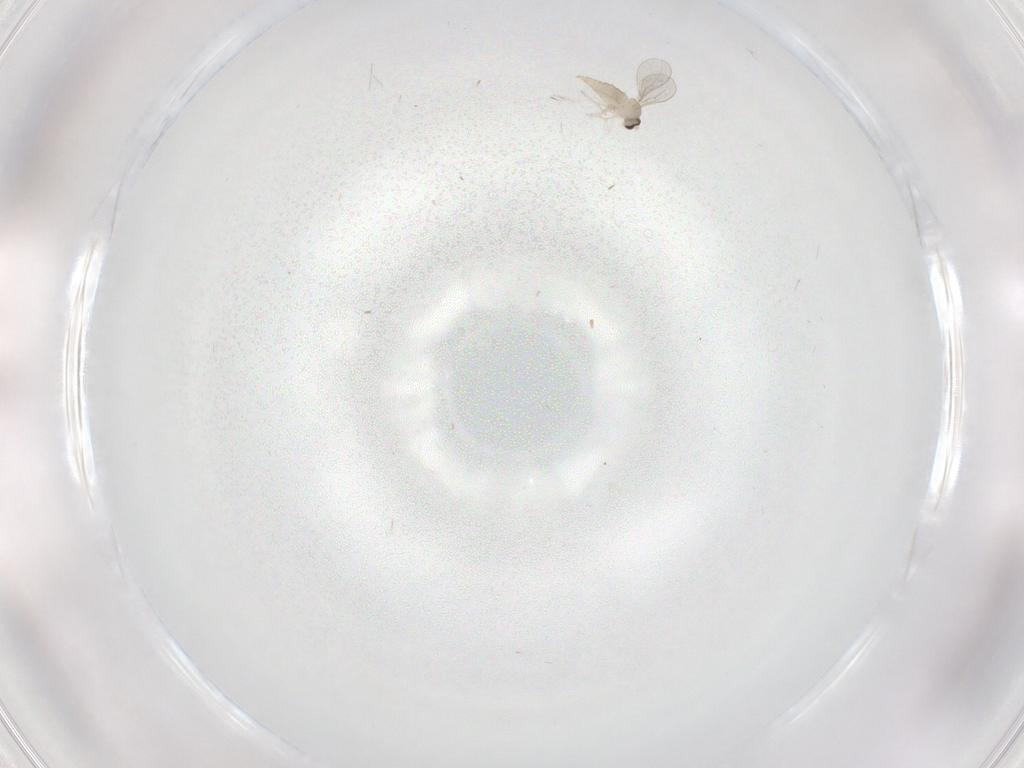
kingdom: Animalia
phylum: Arthropoda
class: Insecta
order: Diptera
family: Cecidomyiidae
